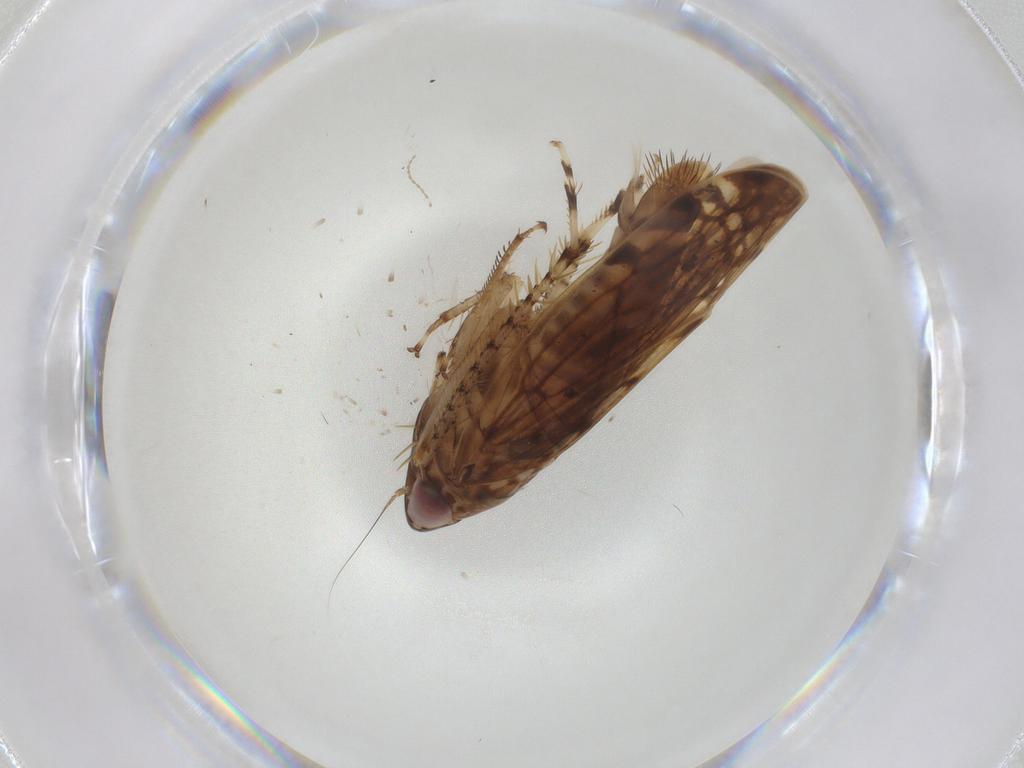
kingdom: Animalia
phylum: Arthropoda
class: Insecta
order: Hemiptera
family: Cicadellidae
